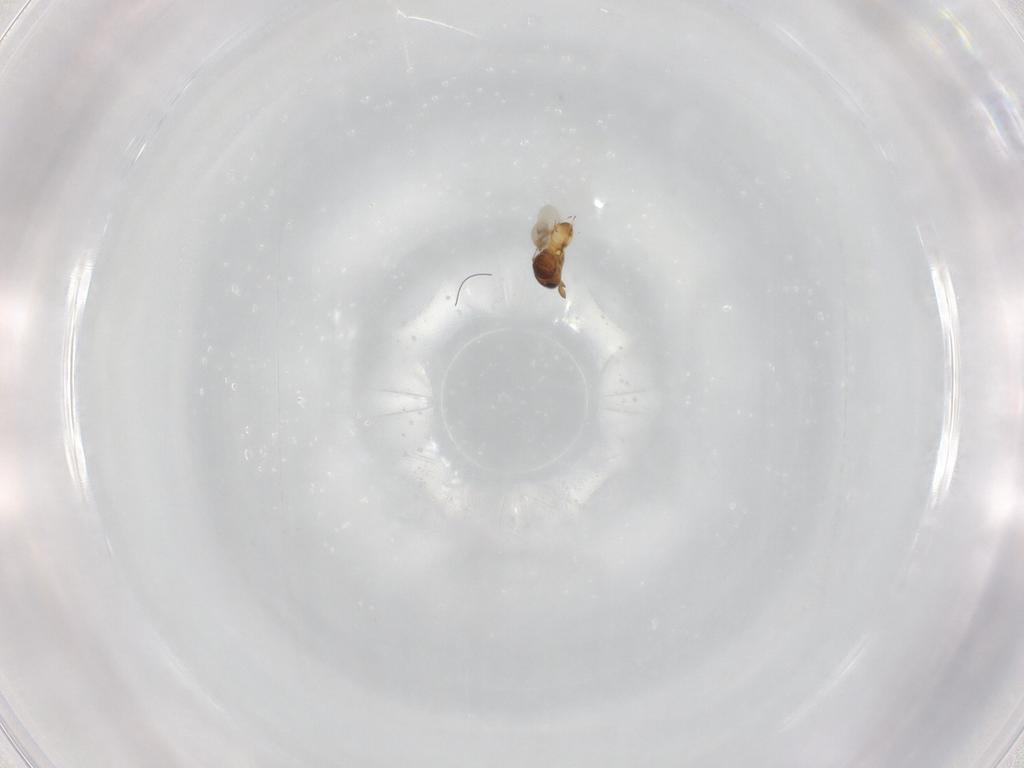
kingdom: Animalia
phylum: Arthropoda
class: Insecta
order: Hymenoptera
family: Scelionidae
